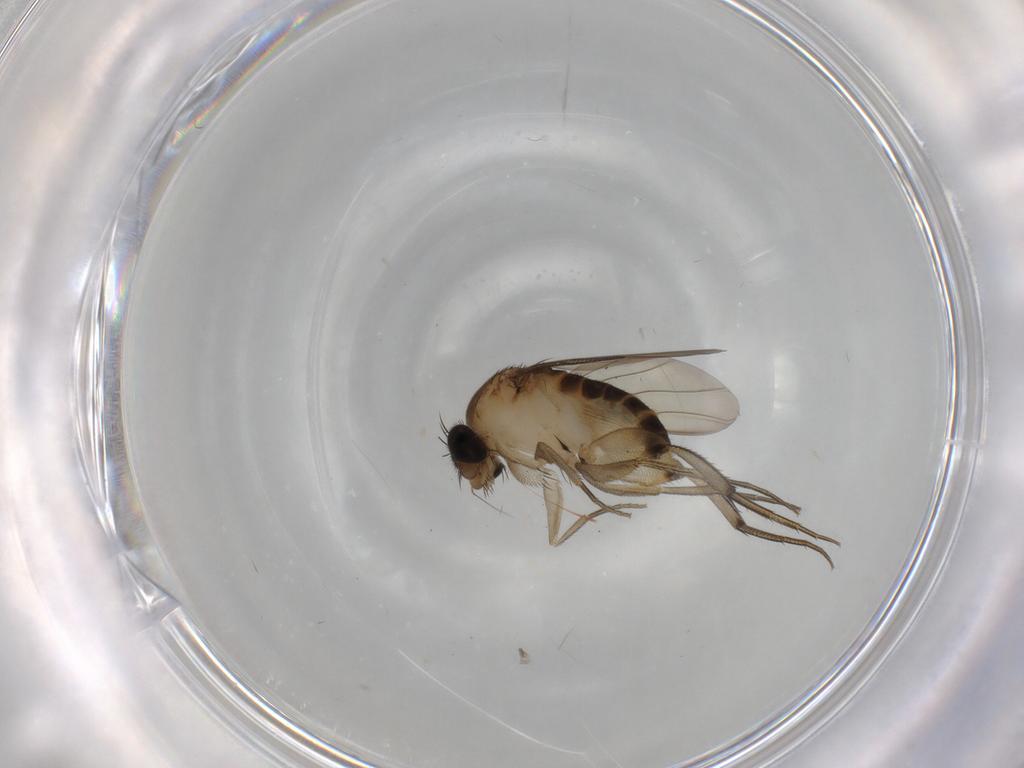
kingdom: Animalia
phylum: Arthropoda
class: Insecta
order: Diptera
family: Phoridae
